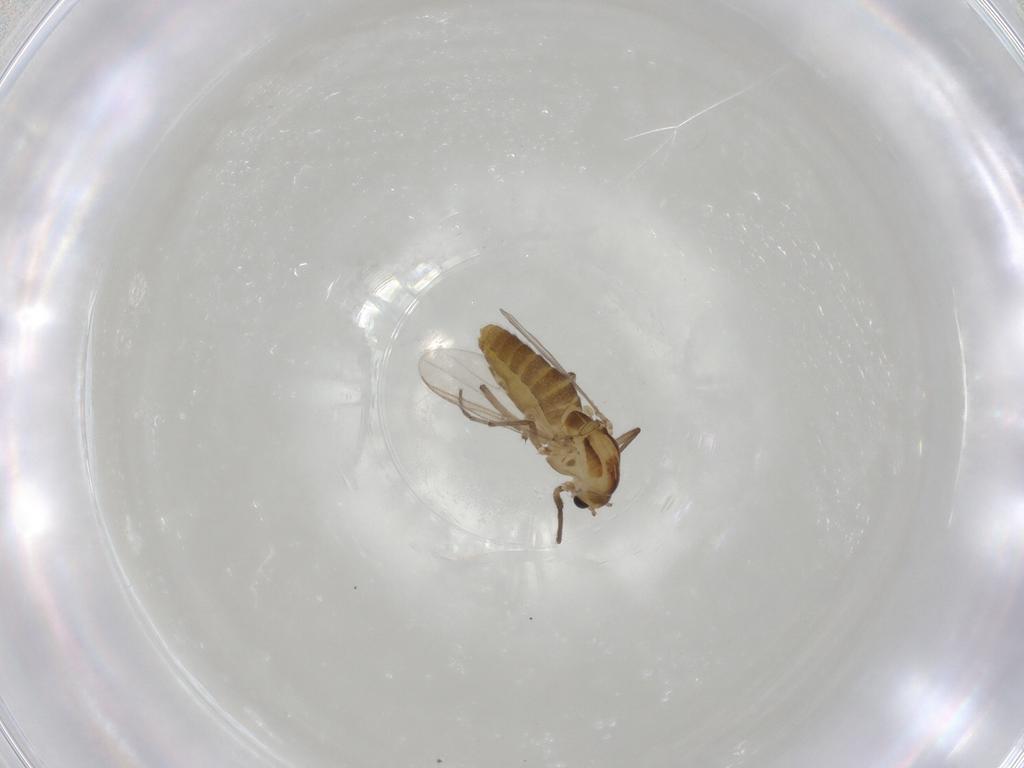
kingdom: Animalia
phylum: Arthropoda
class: Insecta
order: Diptera
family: Chironomidae
